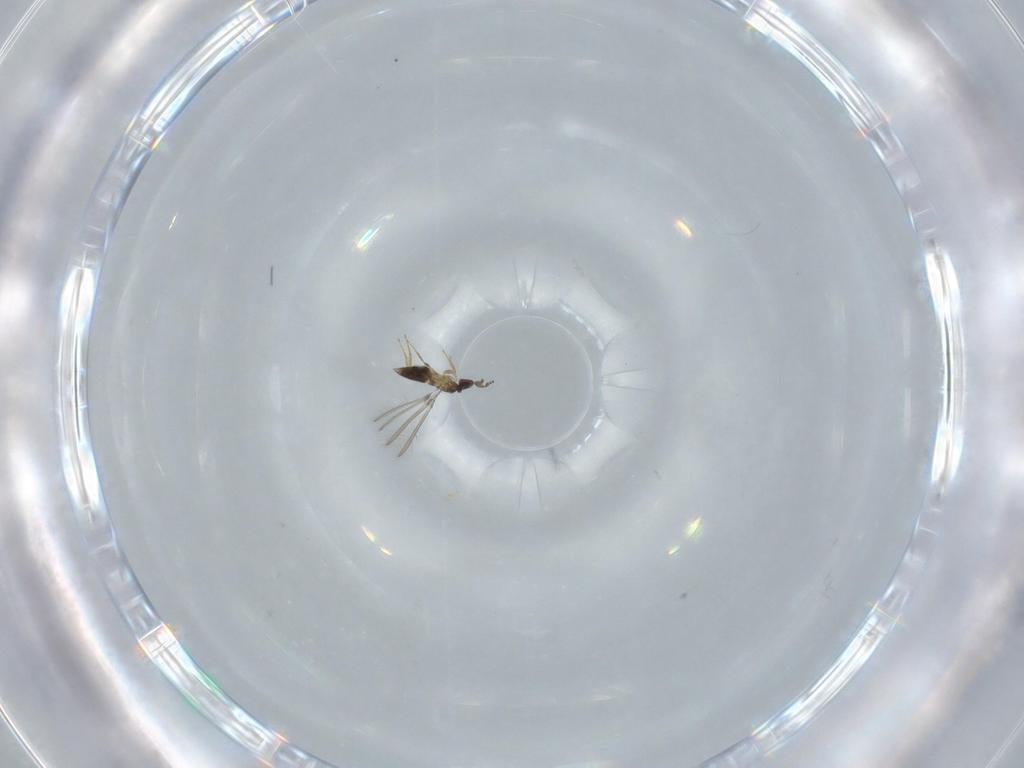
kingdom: Animalia
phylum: Arthropoda
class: Insecta
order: Hymenoptera
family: Mymaridae
